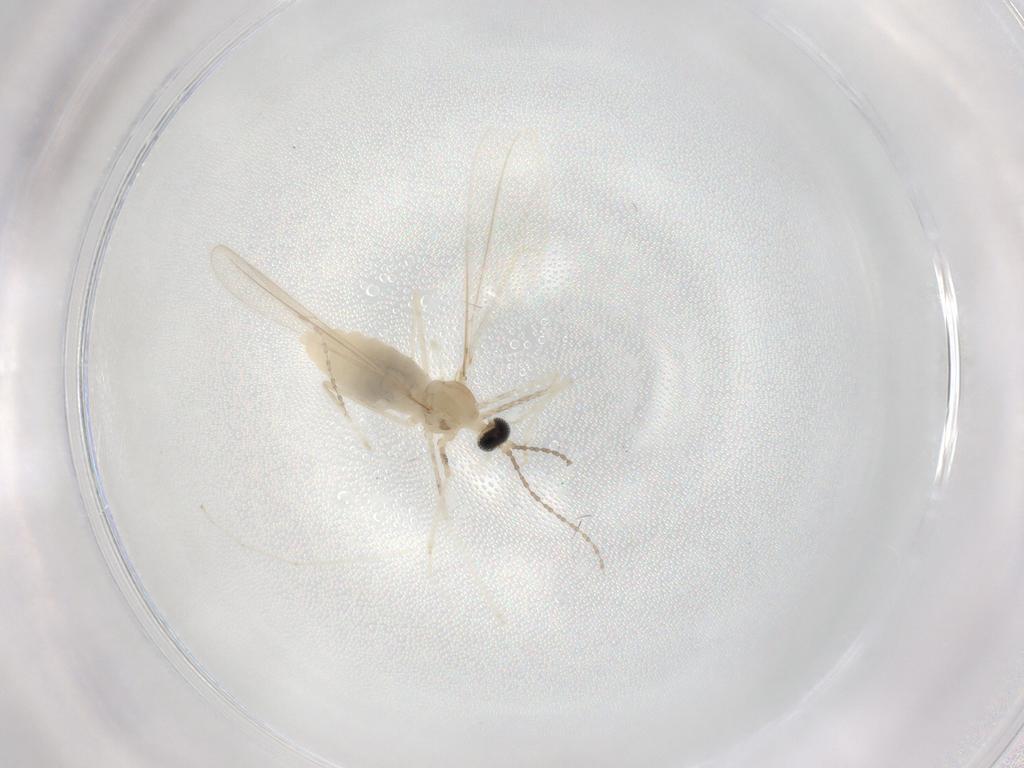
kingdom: Animalia
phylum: Arthropoda
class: Insecta
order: Diptera
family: Cecidomyiidae
